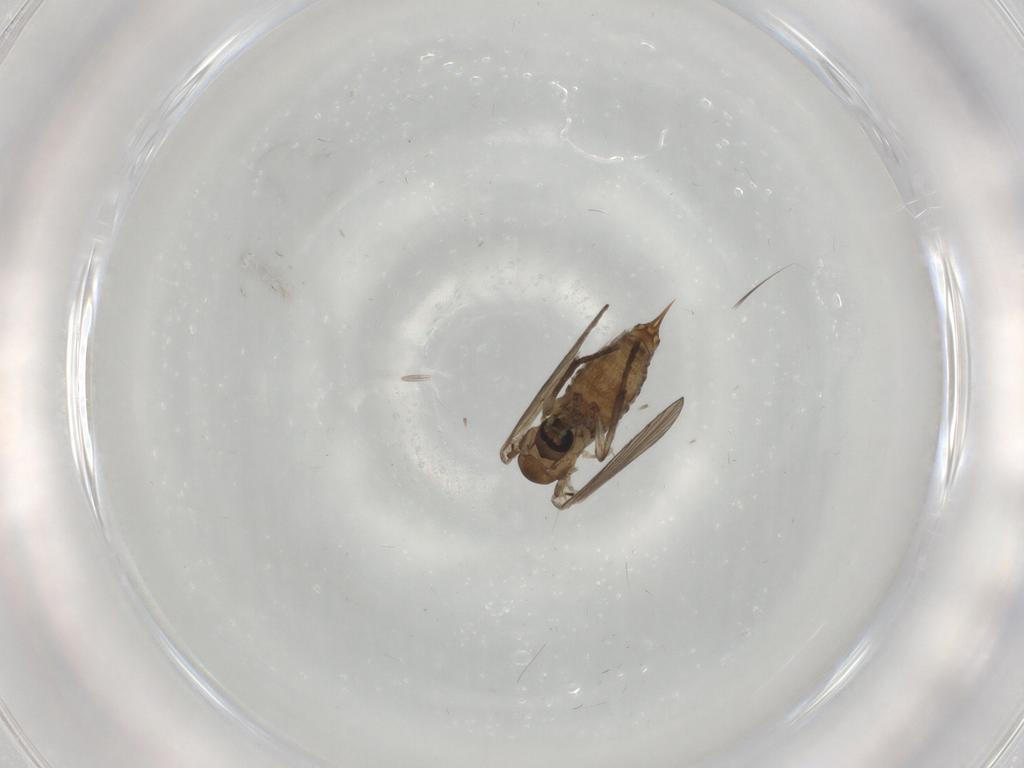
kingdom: Animalia
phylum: Arthropoda
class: Insecta
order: Diptera
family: Psychodidae
